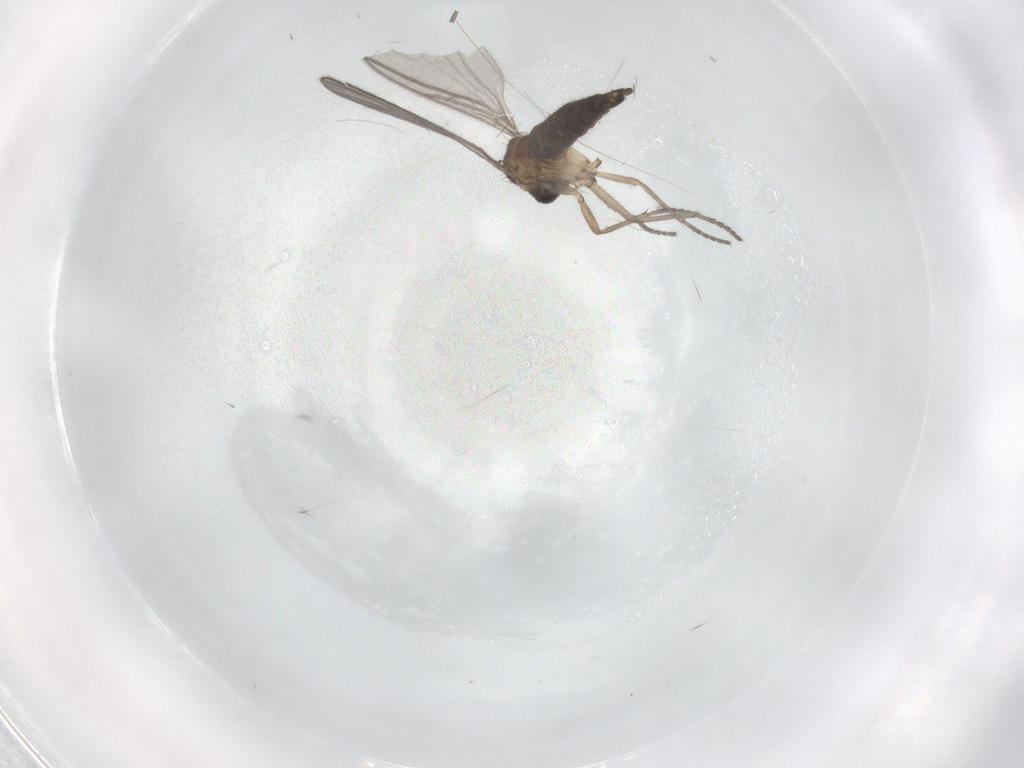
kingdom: Animalia
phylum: Arthropoda
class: Insecta
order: Diptera
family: Sciaridae
